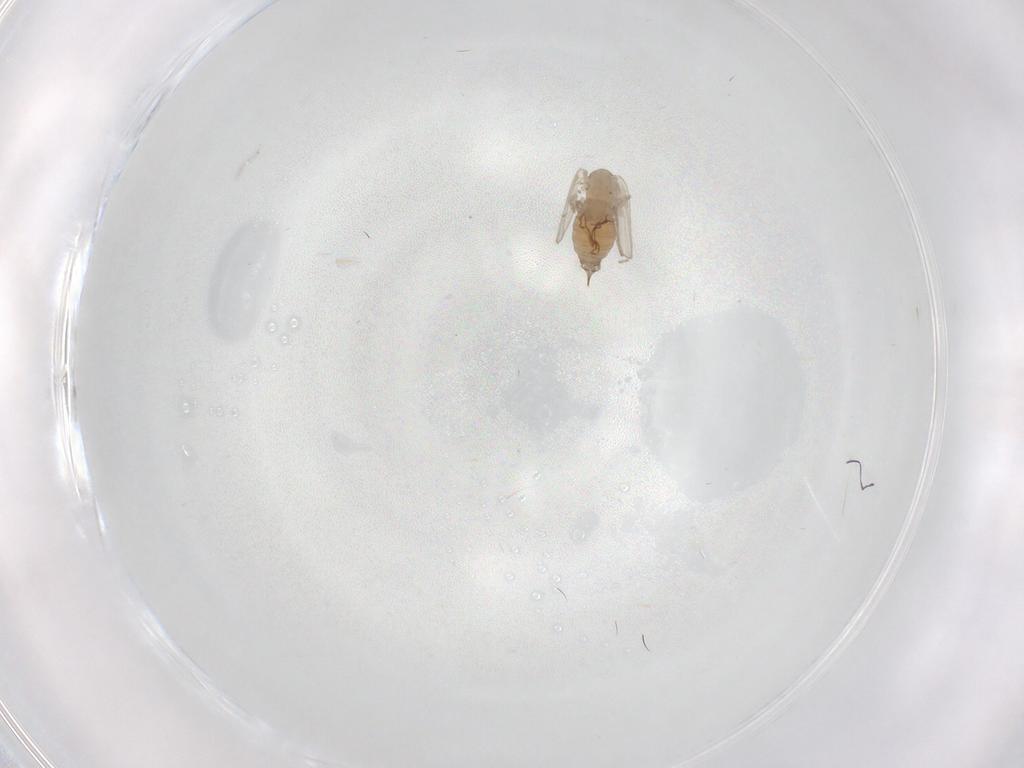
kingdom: Animalia
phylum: Arthropoda
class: Insecta
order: Diptera
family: Psychodidae
